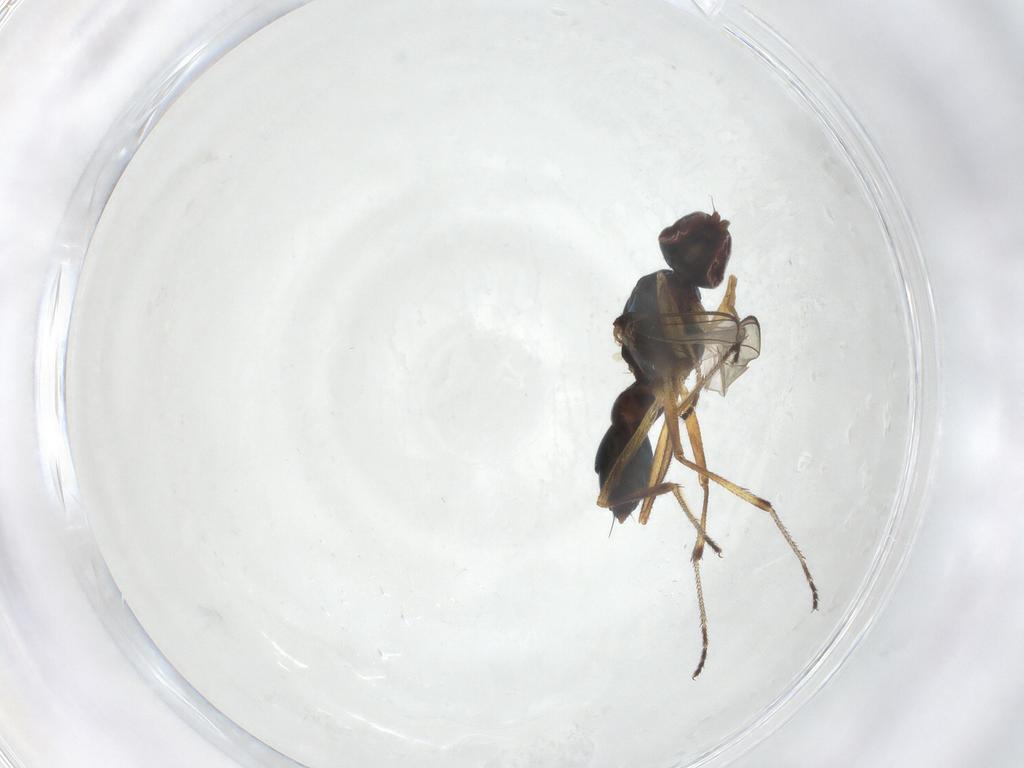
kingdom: Animalia
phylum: Arthropoda
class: Insecta
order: Diptera
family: Sepsidae
